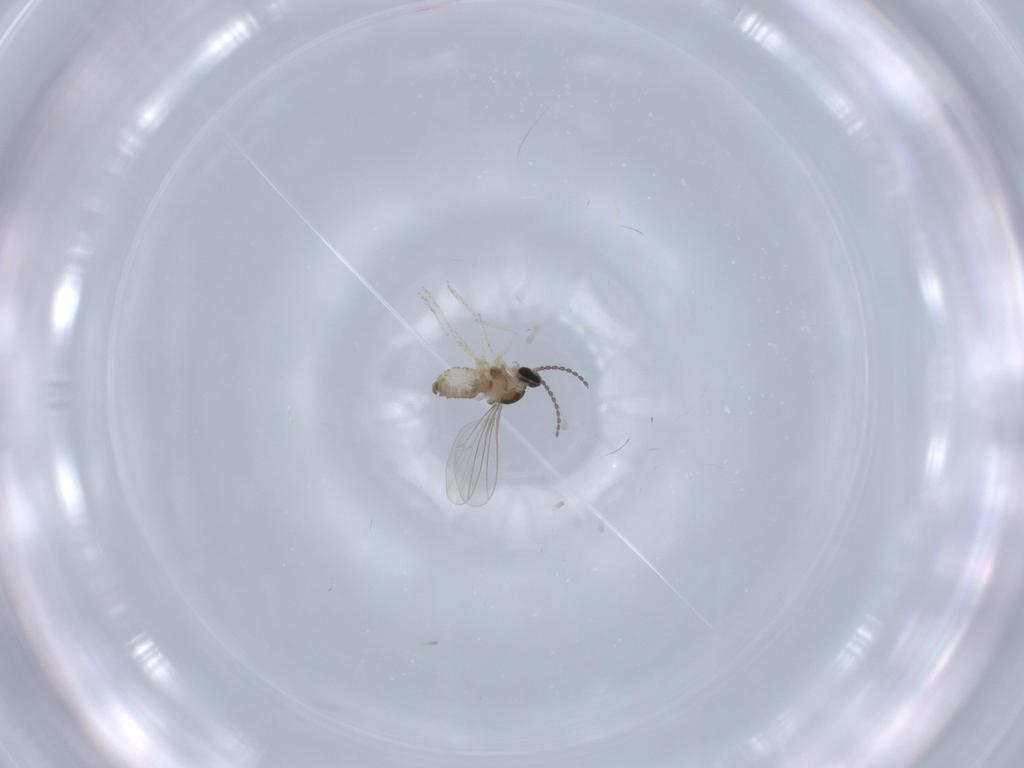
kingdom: Animalia
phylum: Arthropoda
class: Insecta
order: Diptera
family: Cecidomyiidae
